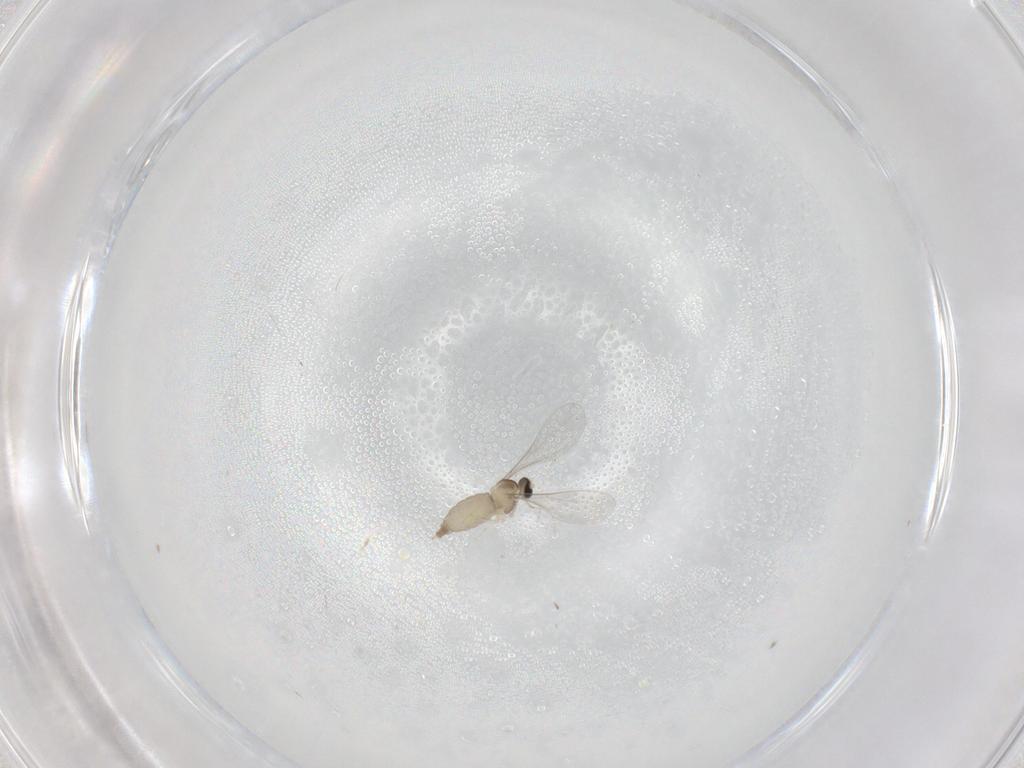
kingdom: Animalia
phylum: Arthropoda
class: Insecta
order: Diptera
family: Cecidomyiidae
